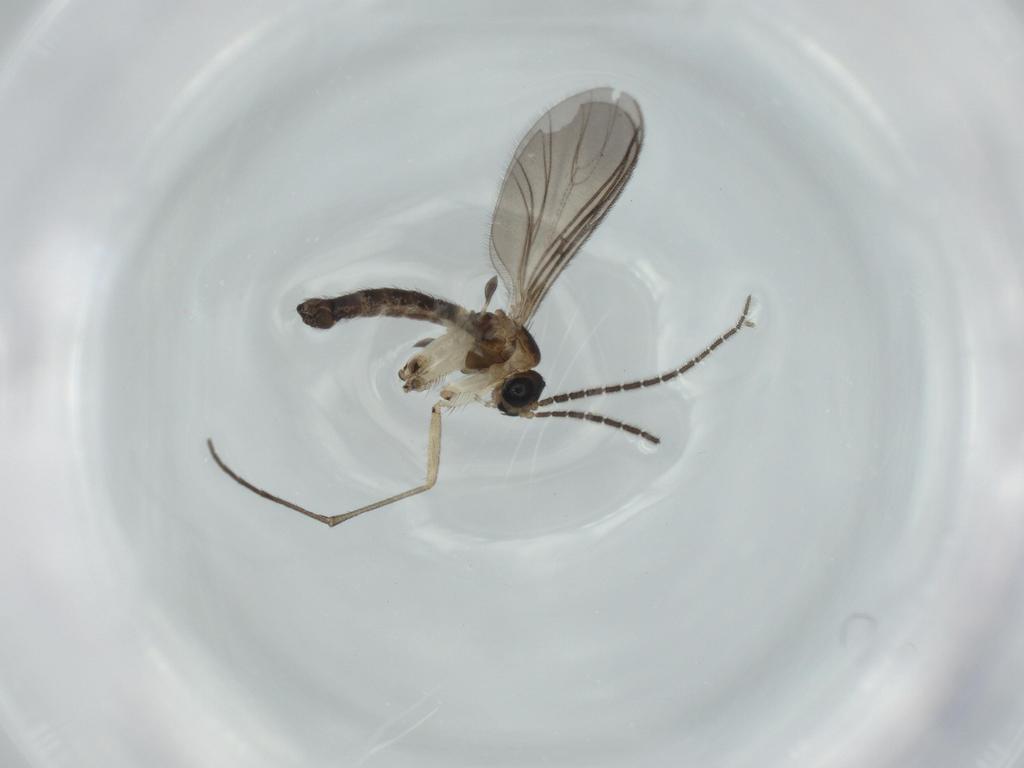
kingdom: Animalia
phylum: Arthropoda
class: Insecta
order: Diptera
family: Sciaridae
